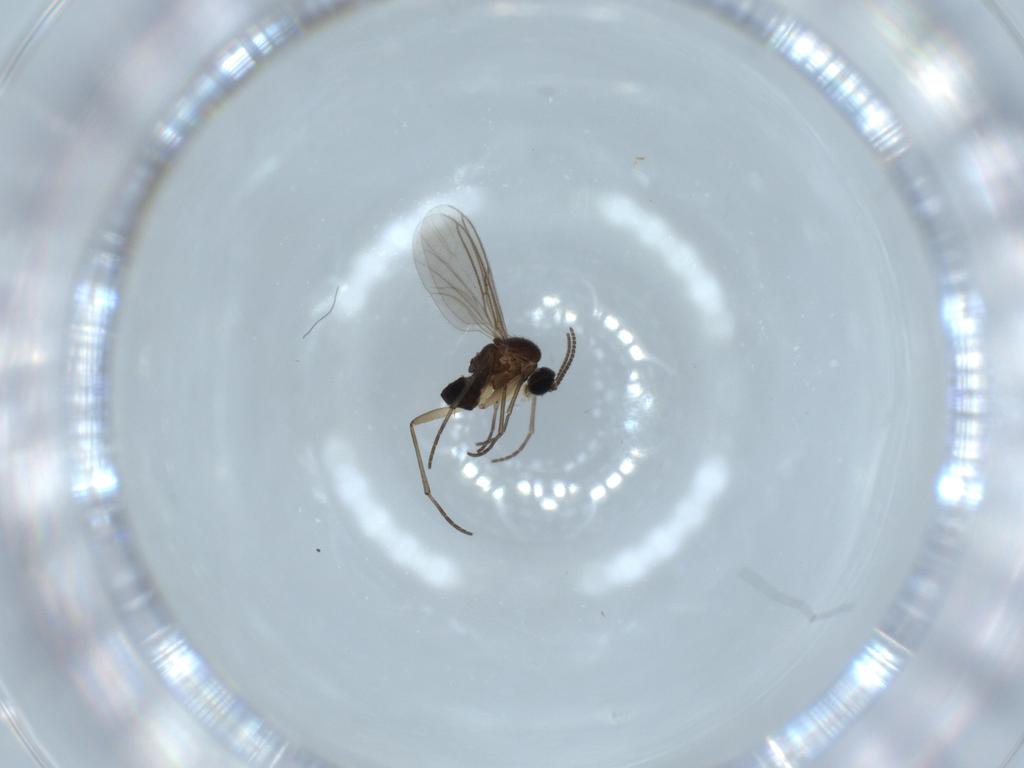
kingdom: Animalia
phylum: Arthropoda
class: Insecta
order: Diptera
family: Sciaridae
